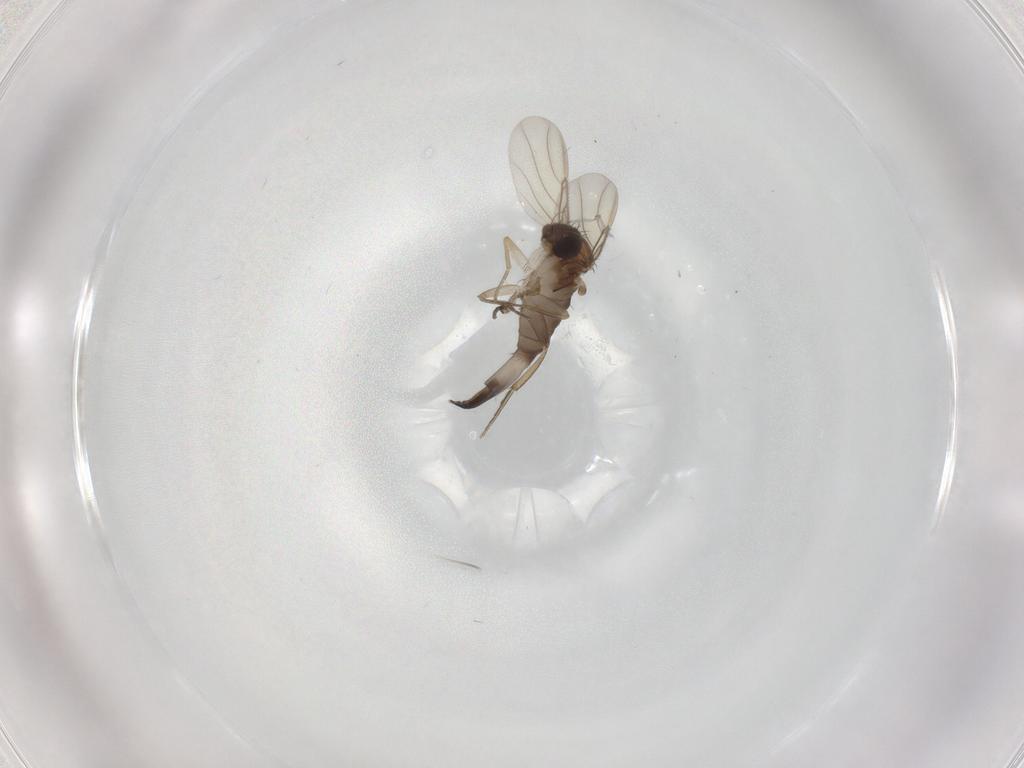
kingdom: Animalia
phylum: Arthropoda
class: Insecta
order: Diptera
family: Phoridae
